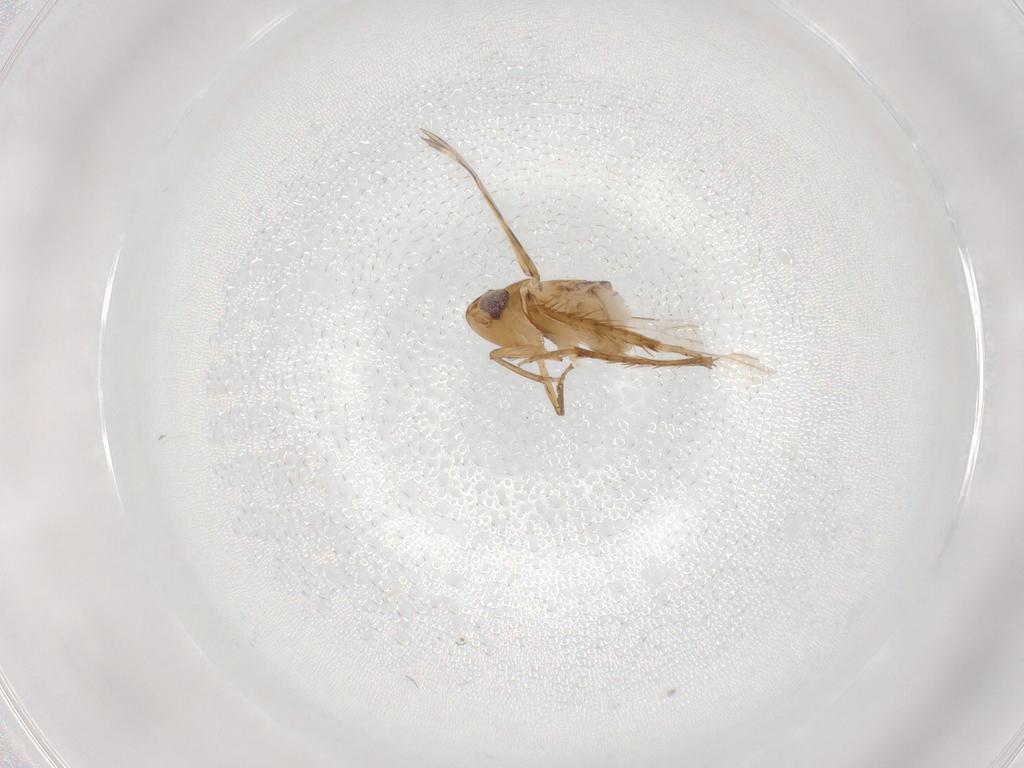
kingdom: Animalia
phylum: Arthropoda
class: Insecta
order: Hemiptera
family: Cicadellidae
